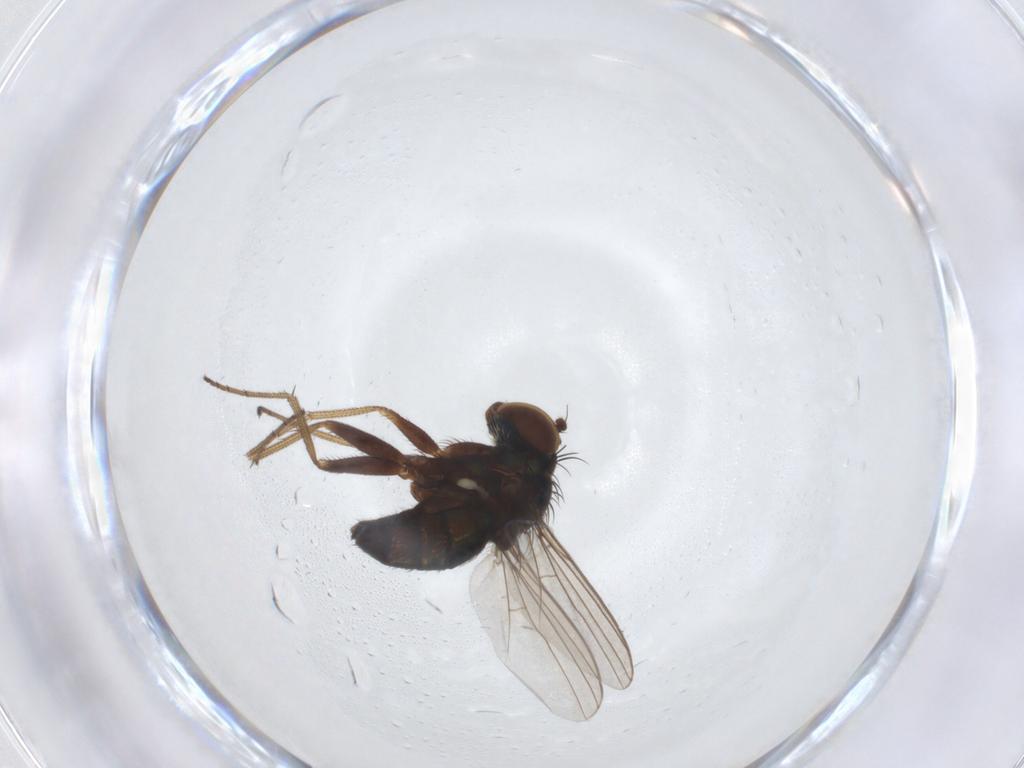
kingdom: Animalia
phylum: Arthropoda
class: Insecta
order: Diptera
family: Dolichopodidae
